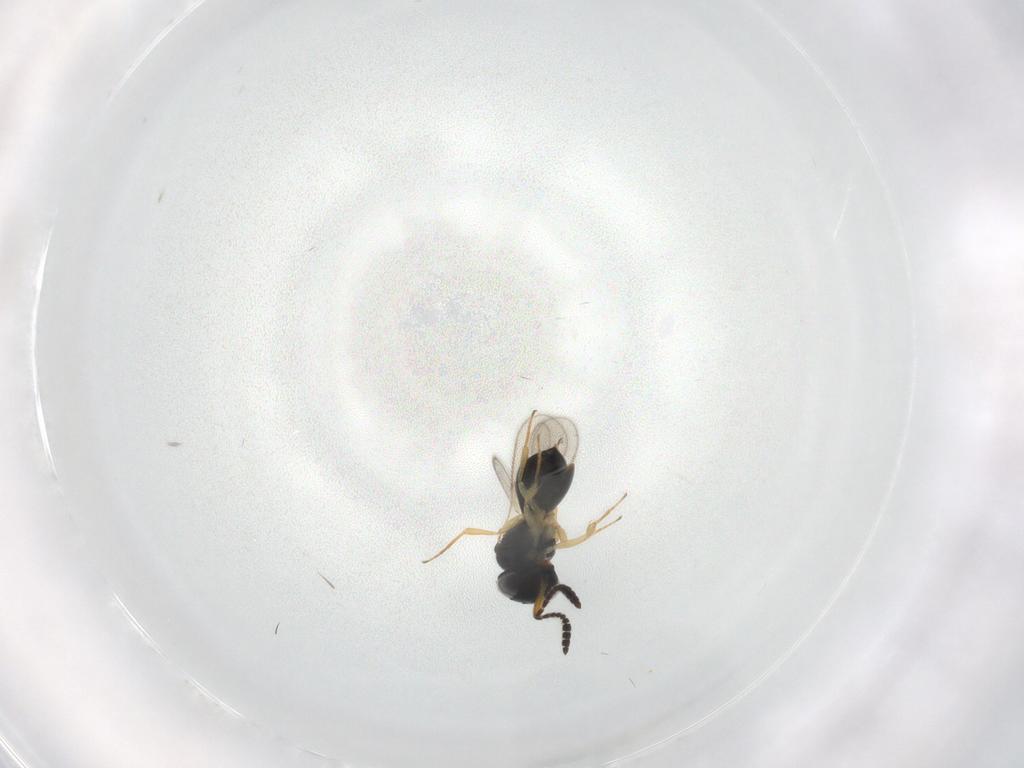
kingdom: Animalia
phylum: Arthropoda
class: Insecta
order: Hymenoptera
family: Scelionidae
